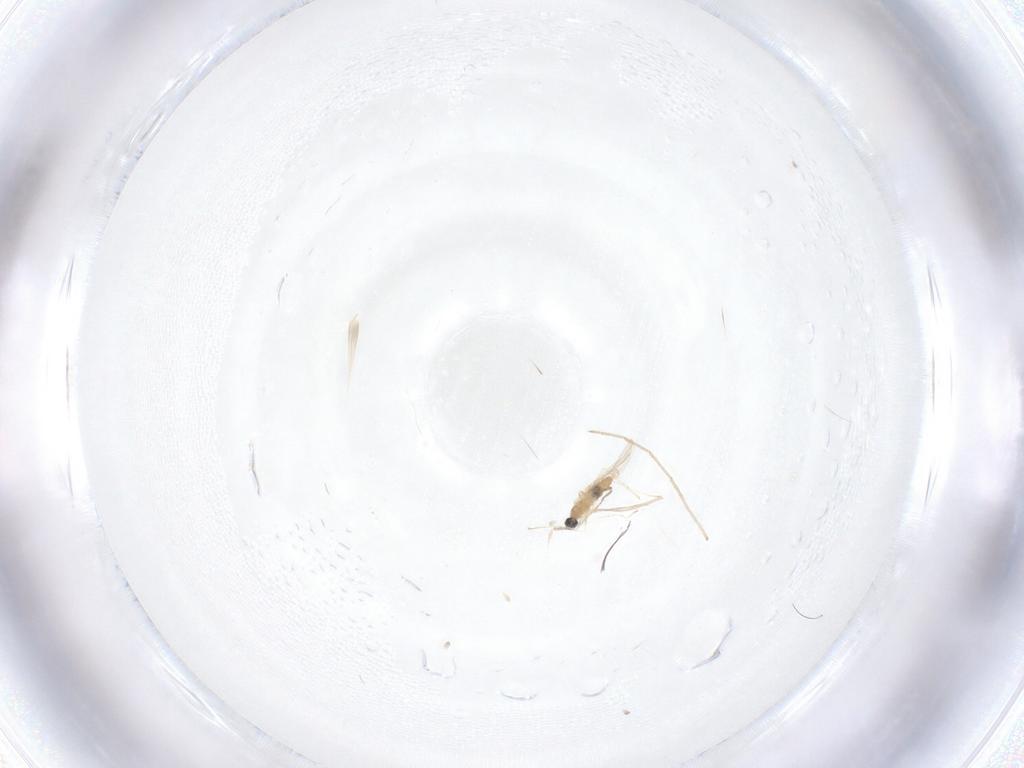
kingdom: Animalia
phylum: Arthropoda
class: Insecta
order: Diptera
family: Cecidomyiidae
